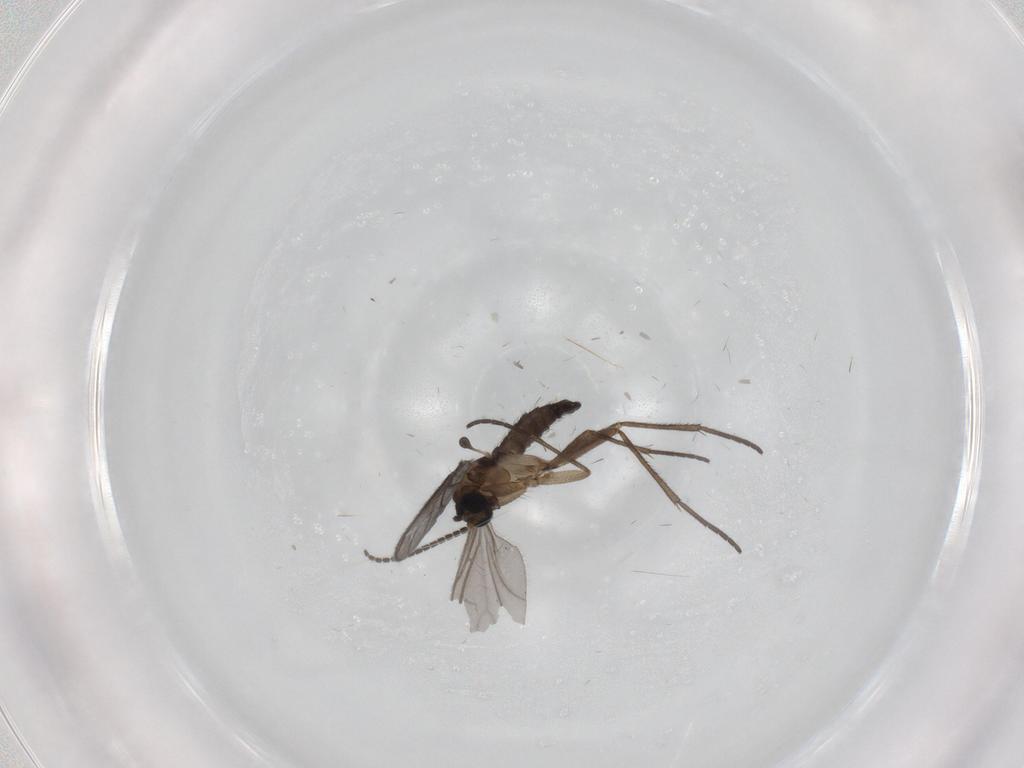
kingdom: Animalia
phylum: Arthropoda
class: Insecta
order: Diptera
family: Sciaridae
